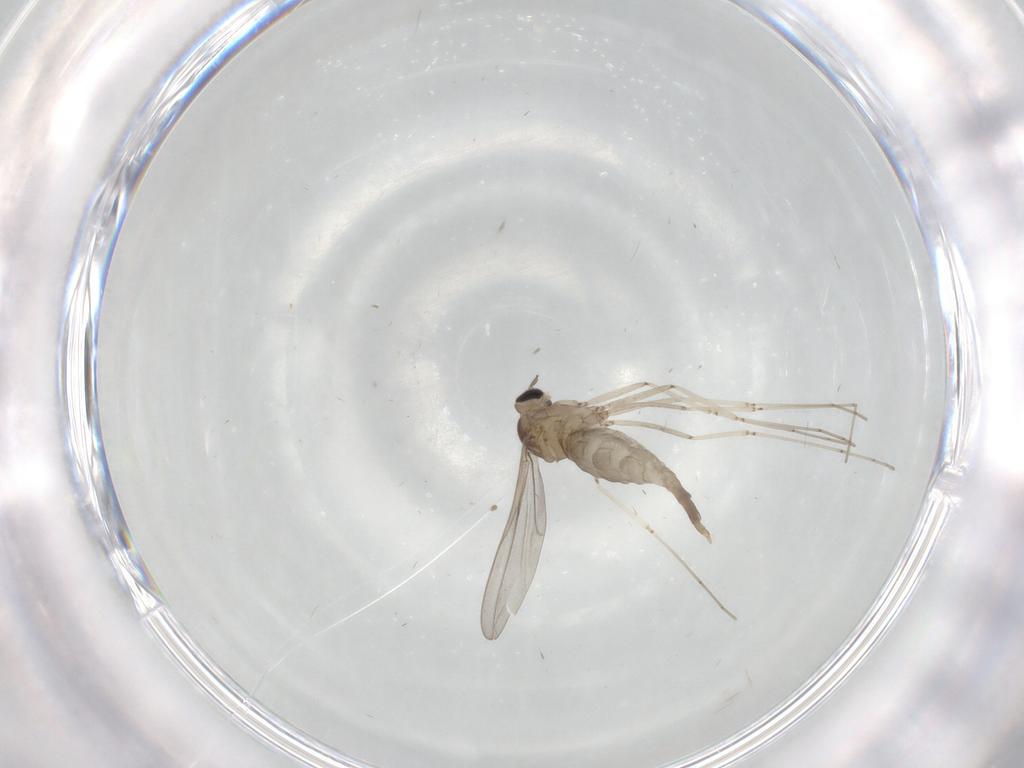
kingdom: Animalia
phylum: Arthropoda
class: Insecta
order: Diptera
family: Cecidomyiidae
